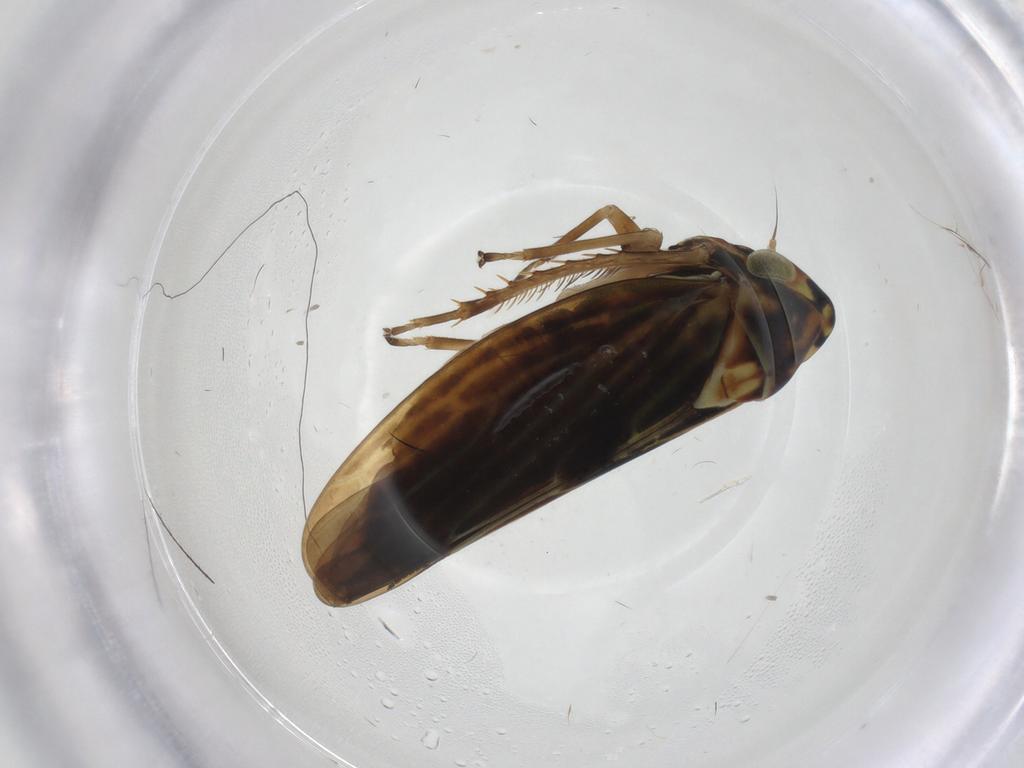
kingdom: Animalia
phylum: Arthropoda
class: Insecta
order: Hemiptera
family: Cicadellidae
